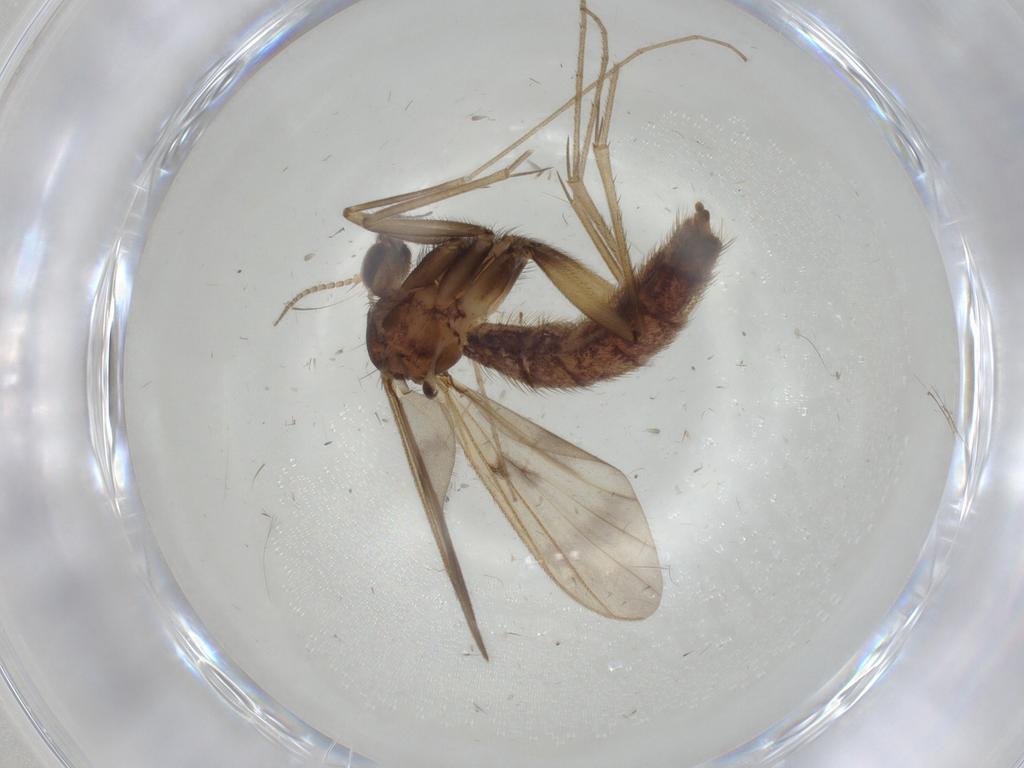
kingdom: Animalia
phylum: Arthropoda
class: Insecta
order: Diptera
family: Mycetophilidae
